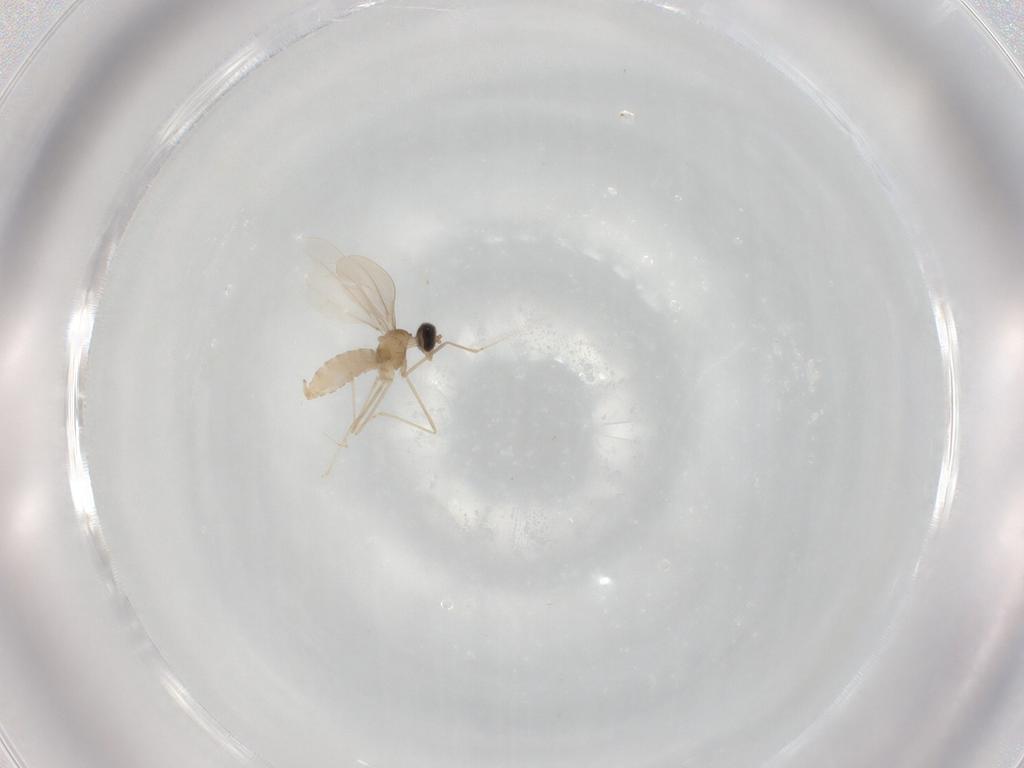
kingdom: Animalia
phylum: Arthropoda
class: Insecta
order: Diptera
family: Cecidomyiidae
